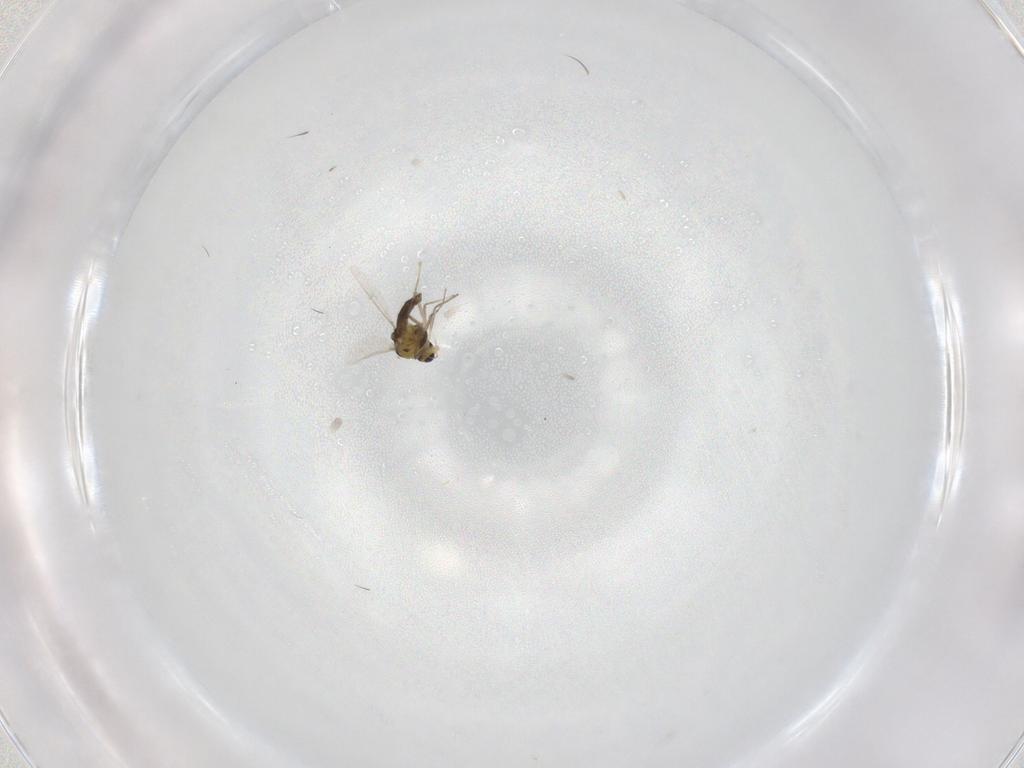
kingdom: Animalia
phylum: Arthropoda
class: Insecta
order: Diptera
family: Chironomidae
